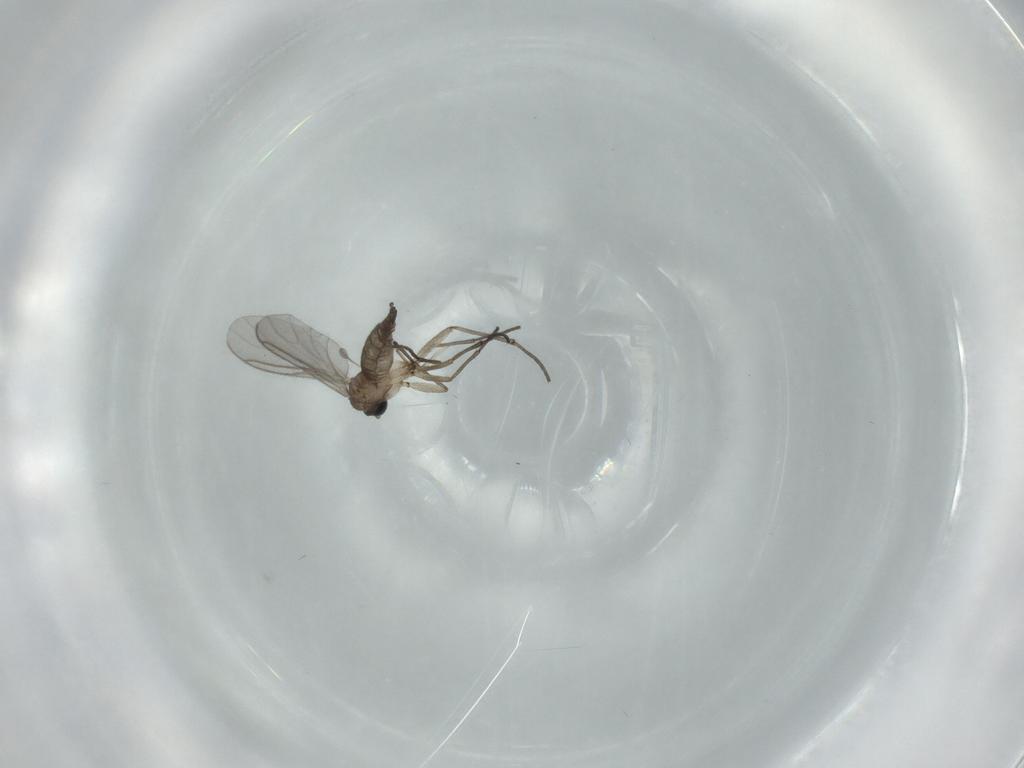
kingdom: Animalia
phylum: Arthropoda
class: Insecta
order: Diptera
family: Sciaridae
